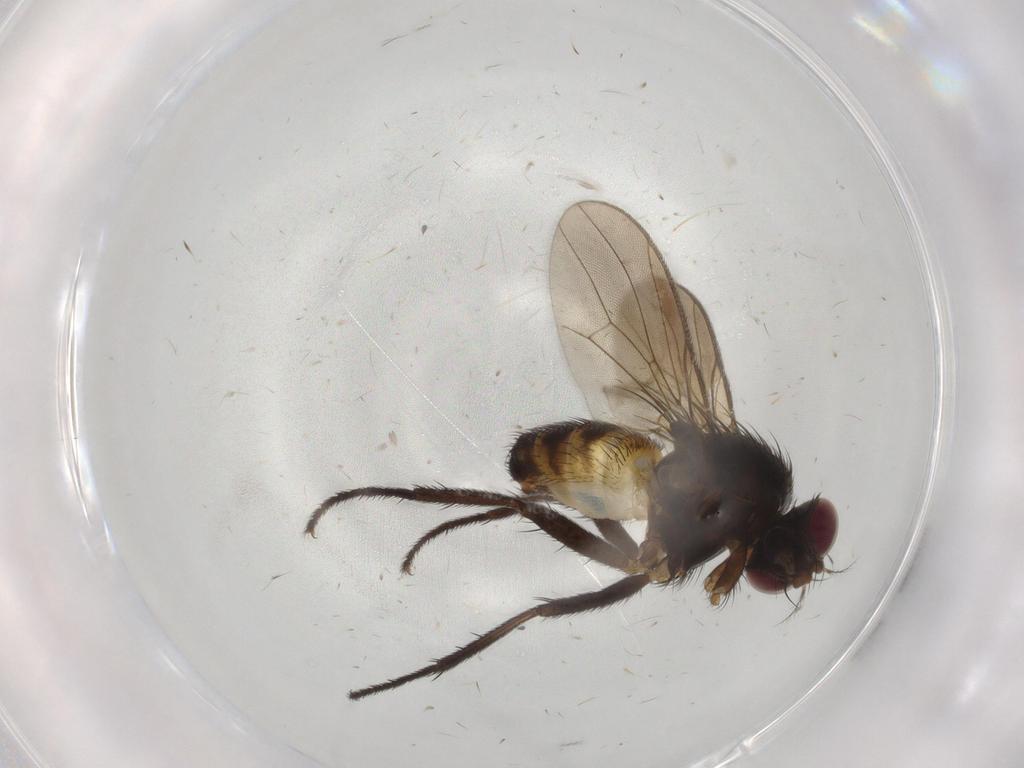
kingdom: Animalia
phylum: Arthropoda
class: Insecta
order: Diptera
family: Anthomyiidae
